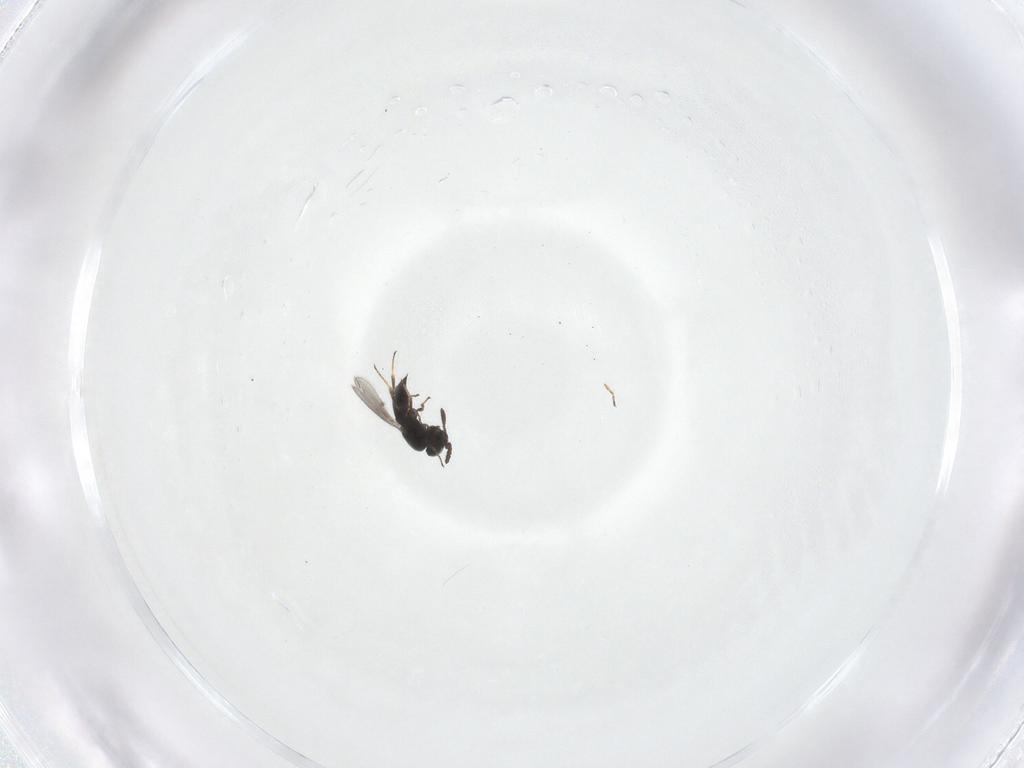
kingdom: Animalia
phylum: Arthropoda
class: Insecta
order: Hymenoptera
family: Scelionidae
